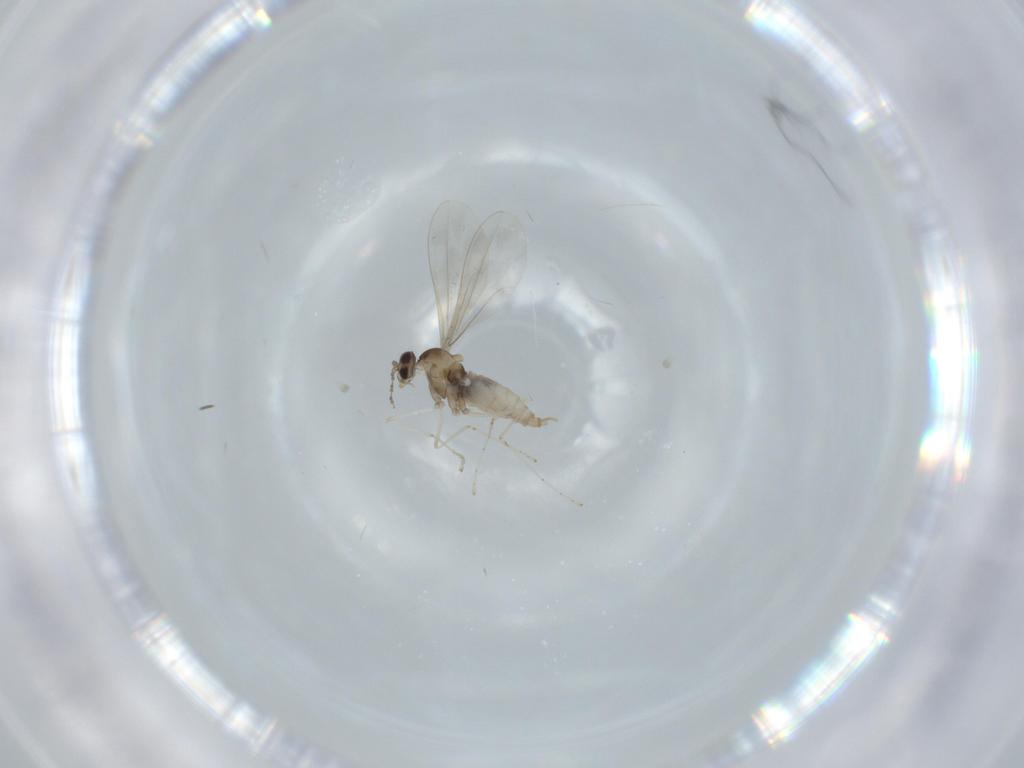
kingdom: Animalia
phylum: Arthropoda
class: Insecta
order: Diptera
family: Cecidomyiidae
